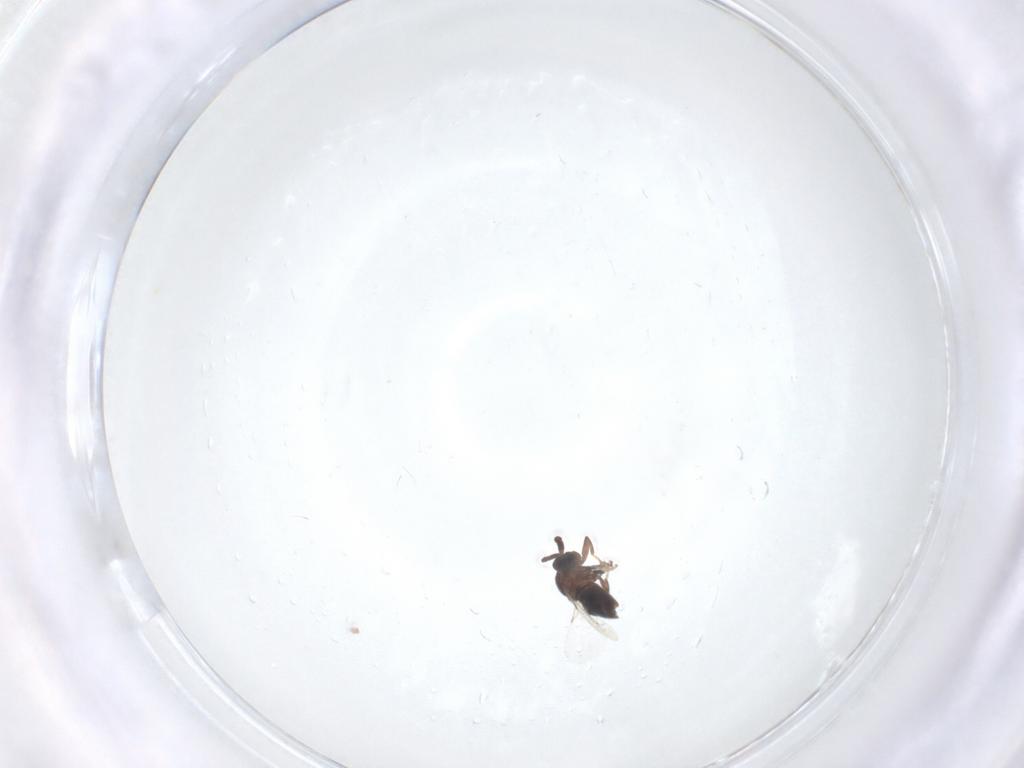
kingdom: Animalia
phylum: Arthropoda
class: Insecta
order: Diptera
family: Scatopsidae
